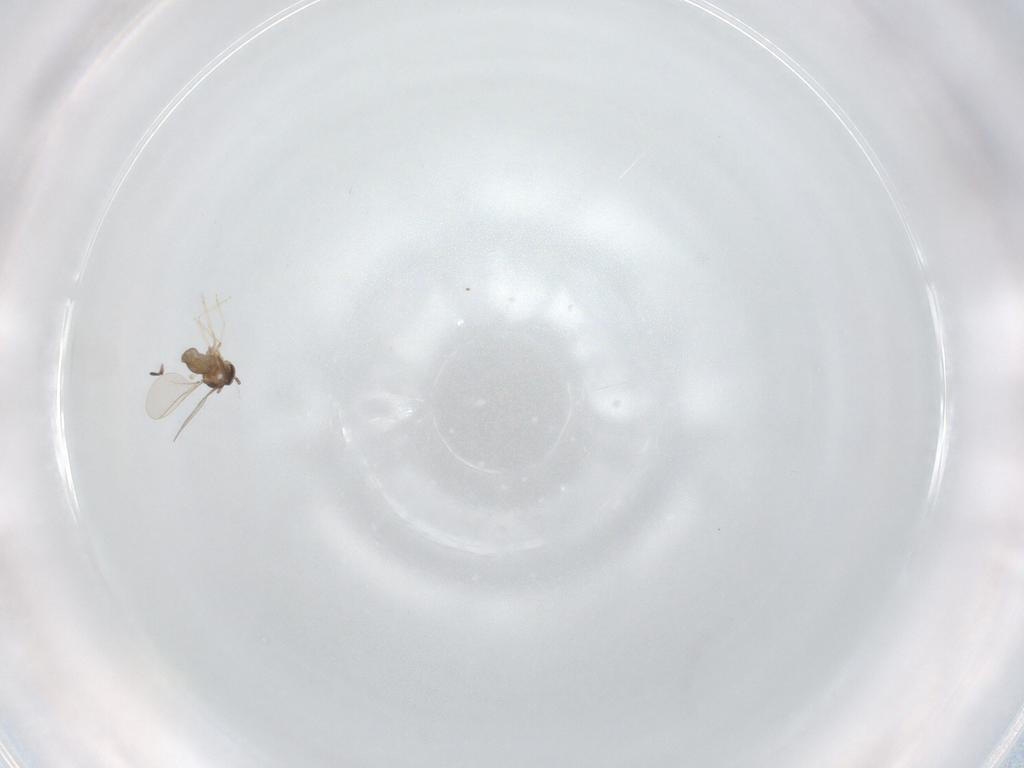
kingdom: Animalia
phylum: Arthropoda
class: Insecta
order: Diptera
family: Cecidomyiidae
